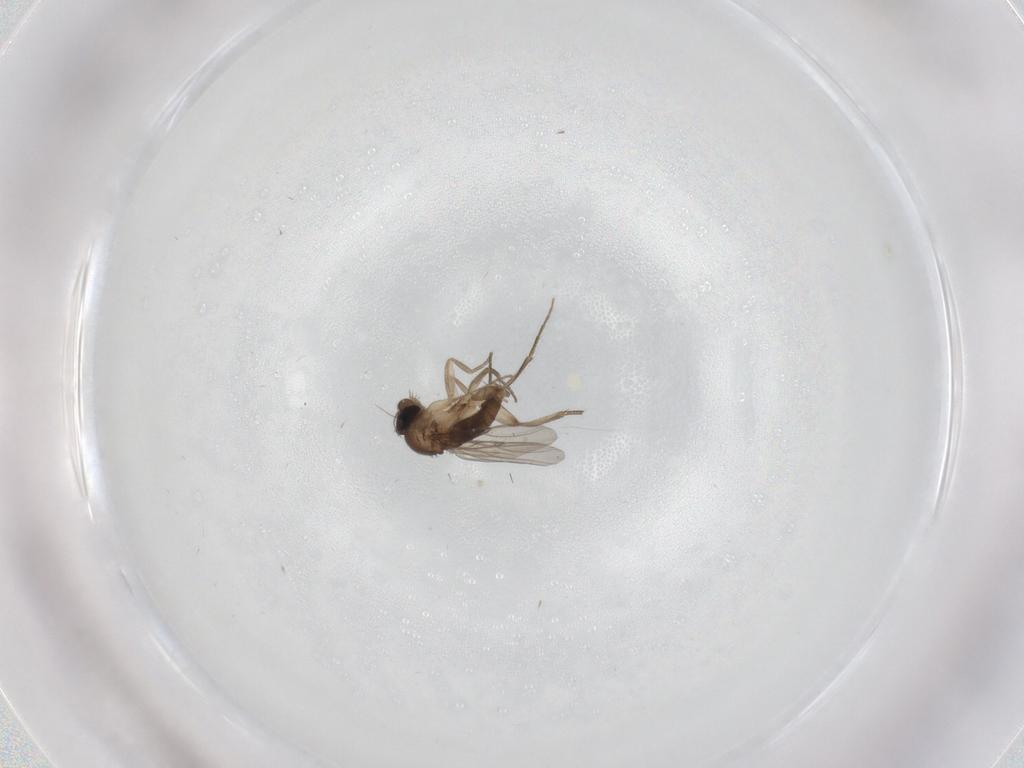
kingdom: Animalia
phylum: Arthropoda
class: Insecta
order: Diptera
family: Phoridae
